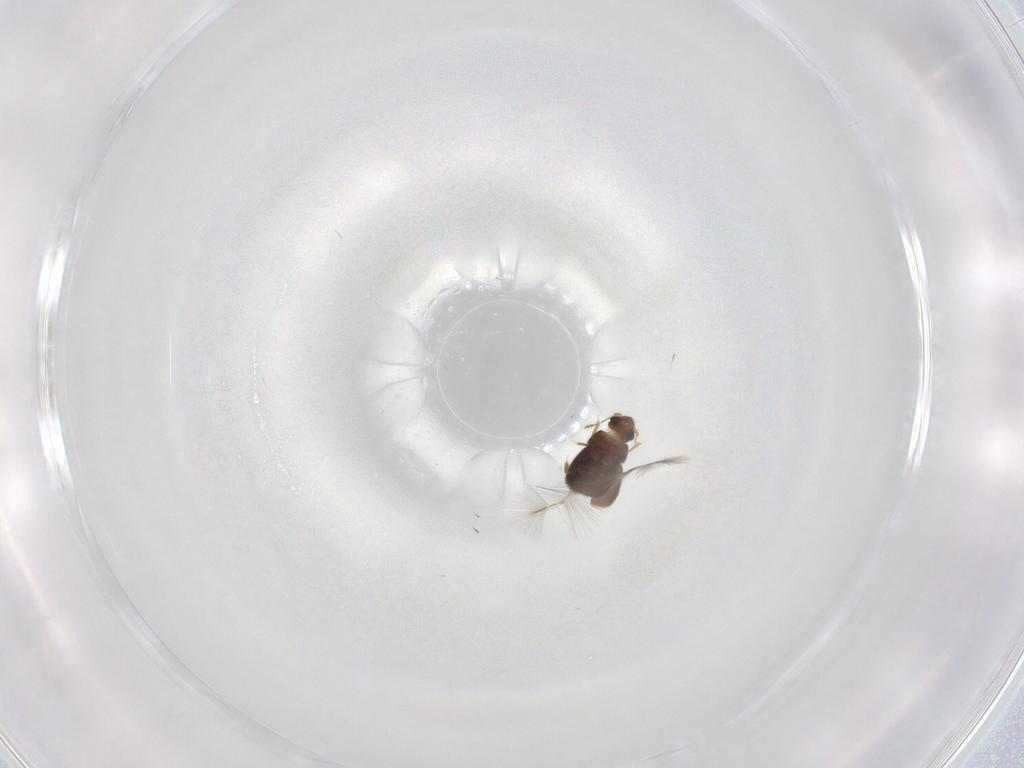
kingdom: Animalia
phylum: Arthropoda
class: Insecta
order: Coleoptera
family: Ptiliidae
